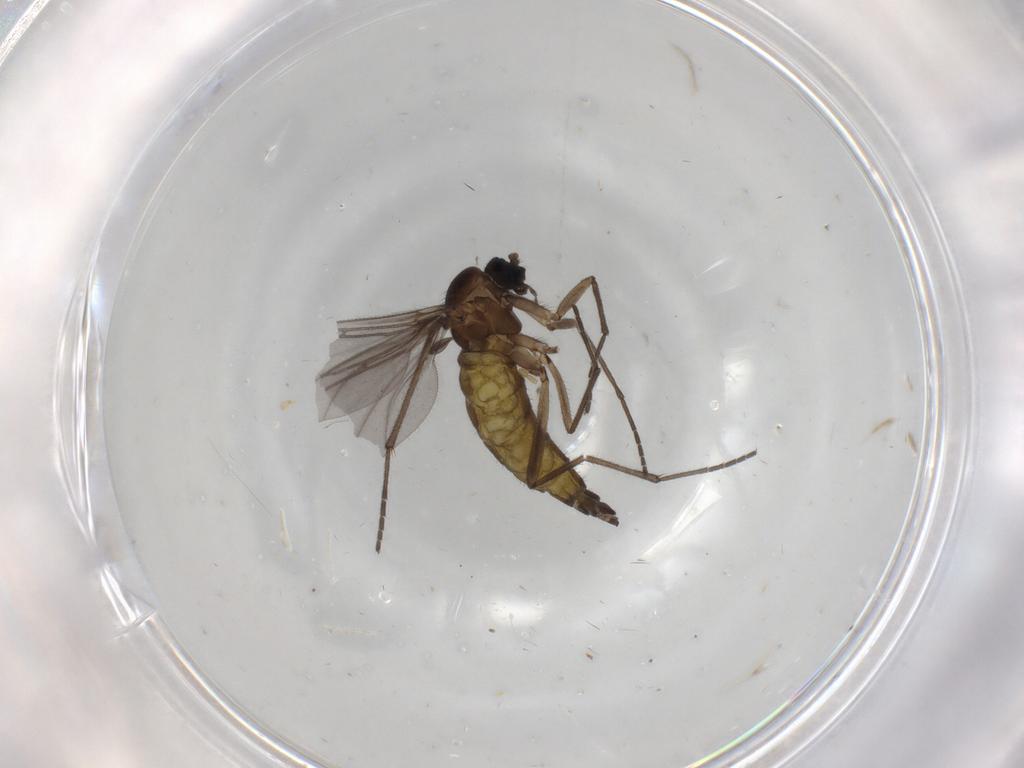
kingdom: Animalia
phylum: Arthropoda
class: Insecta
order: Diptera
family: Sciaridae
